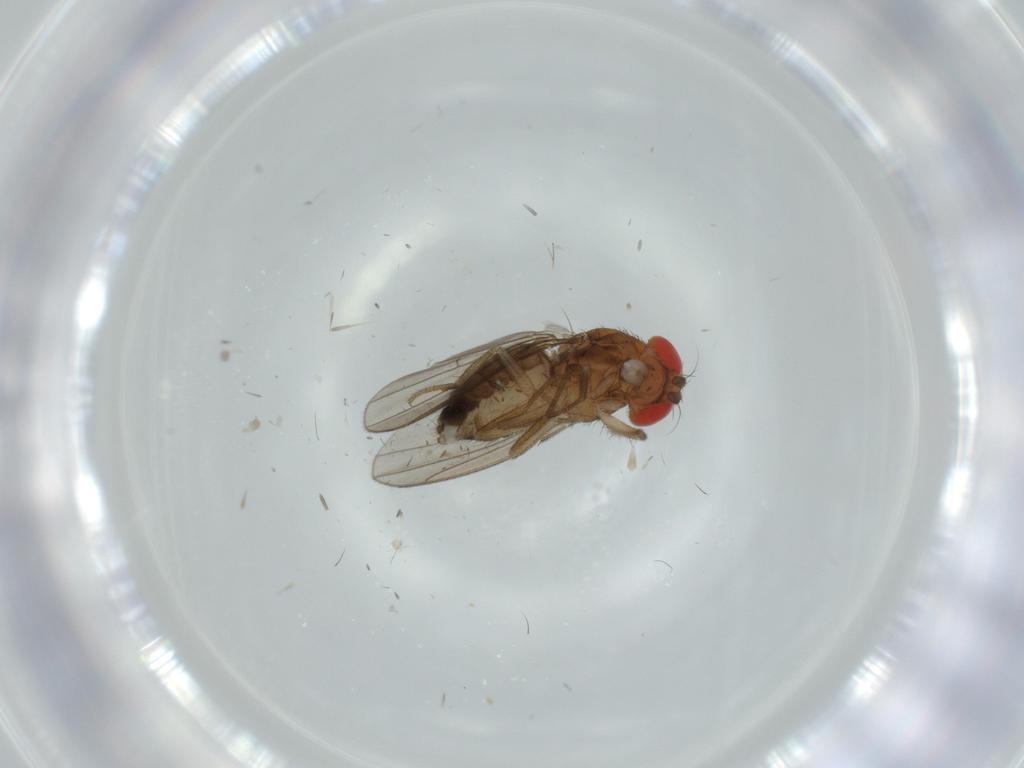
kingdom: Animalia
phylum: Arthropoda
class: Insecta
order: Diptera
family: Drosophilidae
